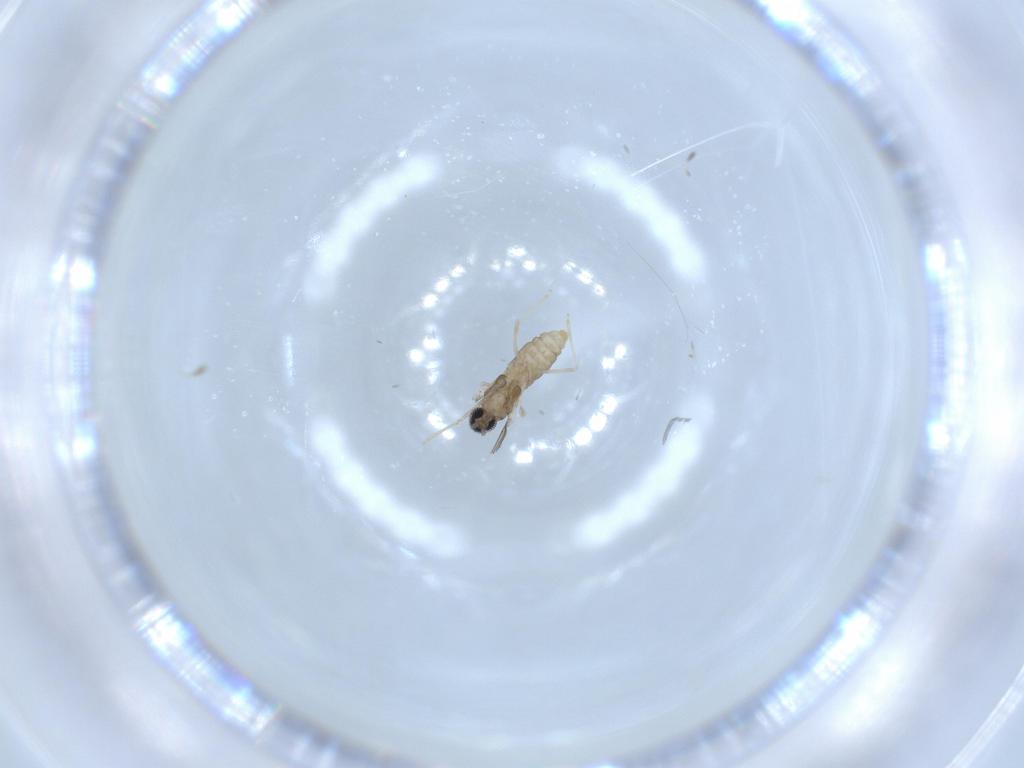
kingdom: Animalia
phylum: Arthropoda
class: Insecta
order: Diptera
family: Cecidomyiidae
